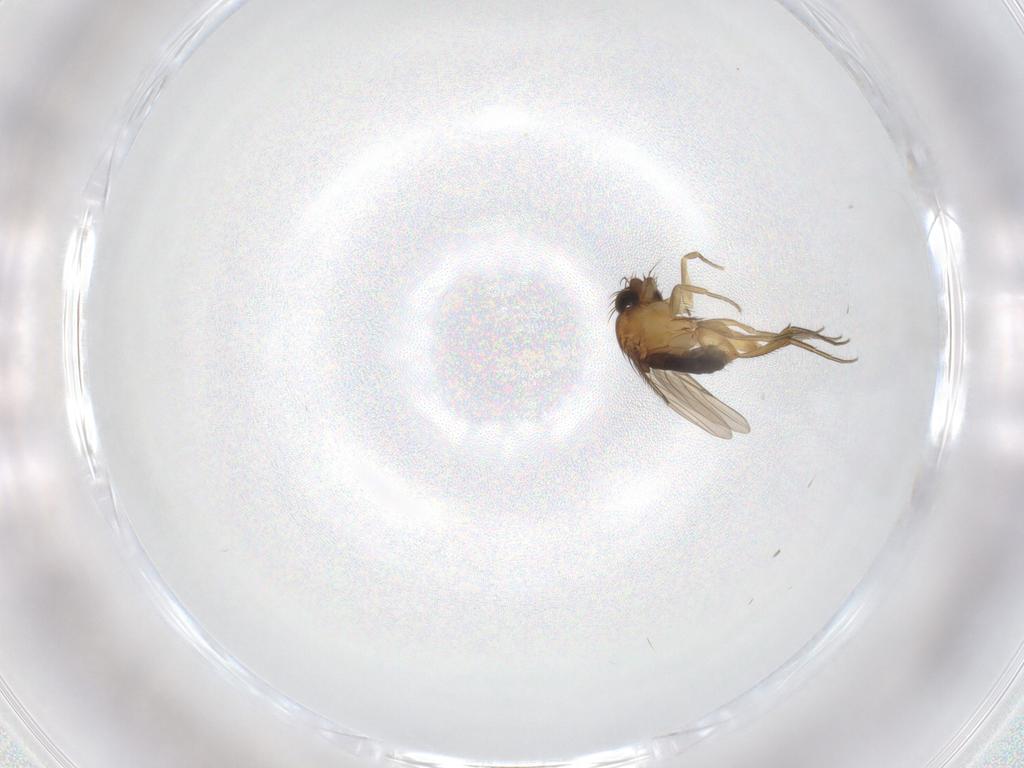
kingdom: Animalia
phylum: Arthropoda
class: Insecta
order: Diptera
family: Phoridae
